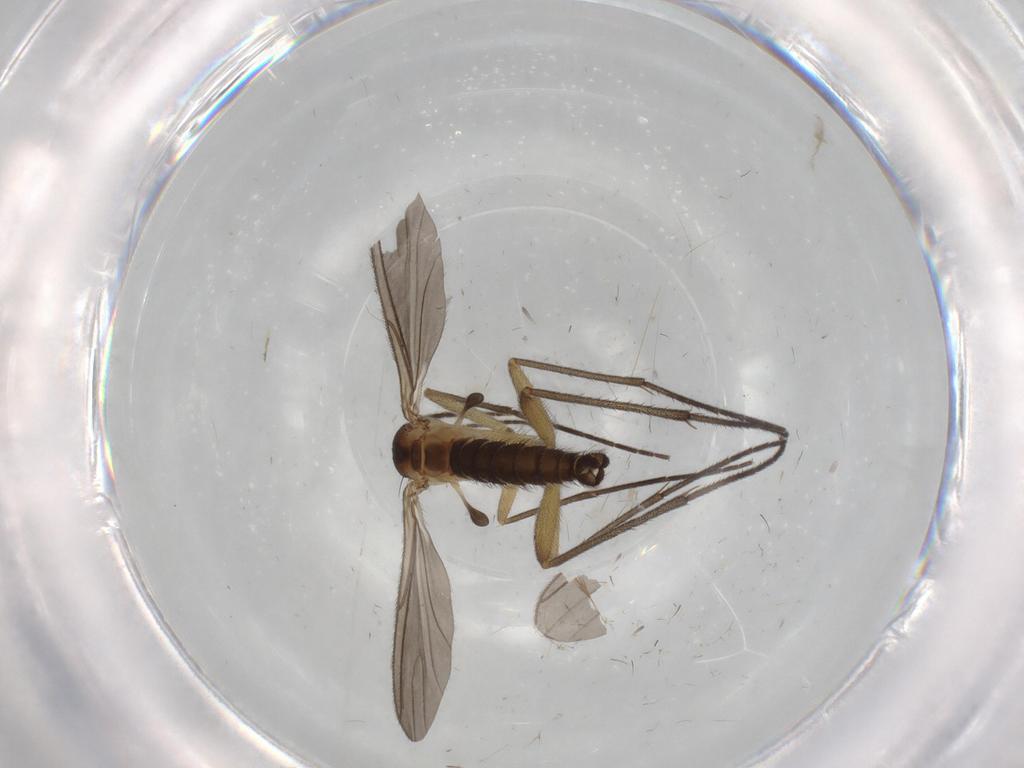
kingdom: Animalia
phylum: Arthropoda
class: Insecta
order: Diptera
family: Sciaridae
